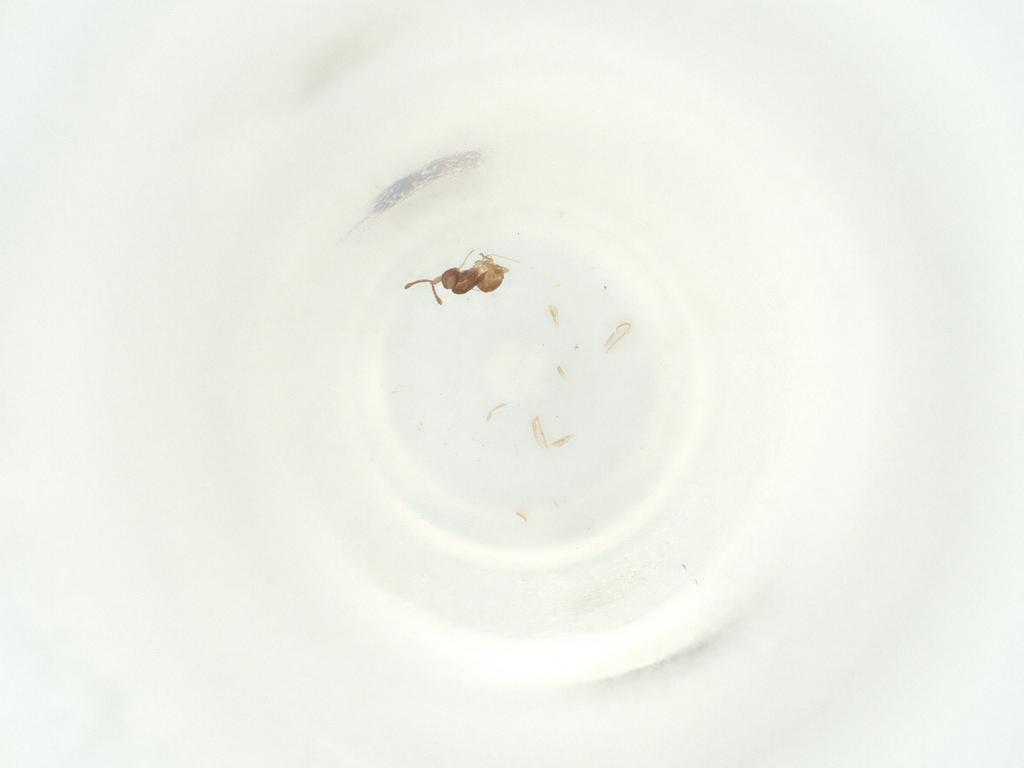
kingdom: Animalia
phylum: Arthropoda
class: Insecta
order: Diptera
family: Chironomidae
